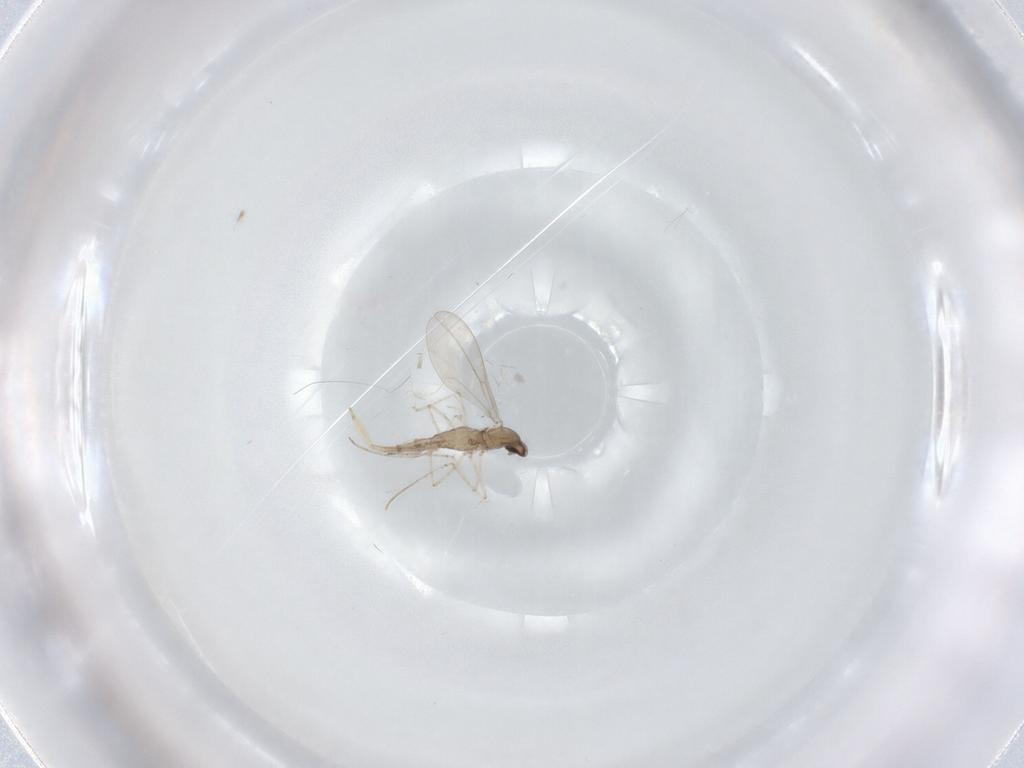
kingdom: Animalia
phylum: Arthropoda
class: Insecta
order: Diptera
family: Cecidomyiidae
